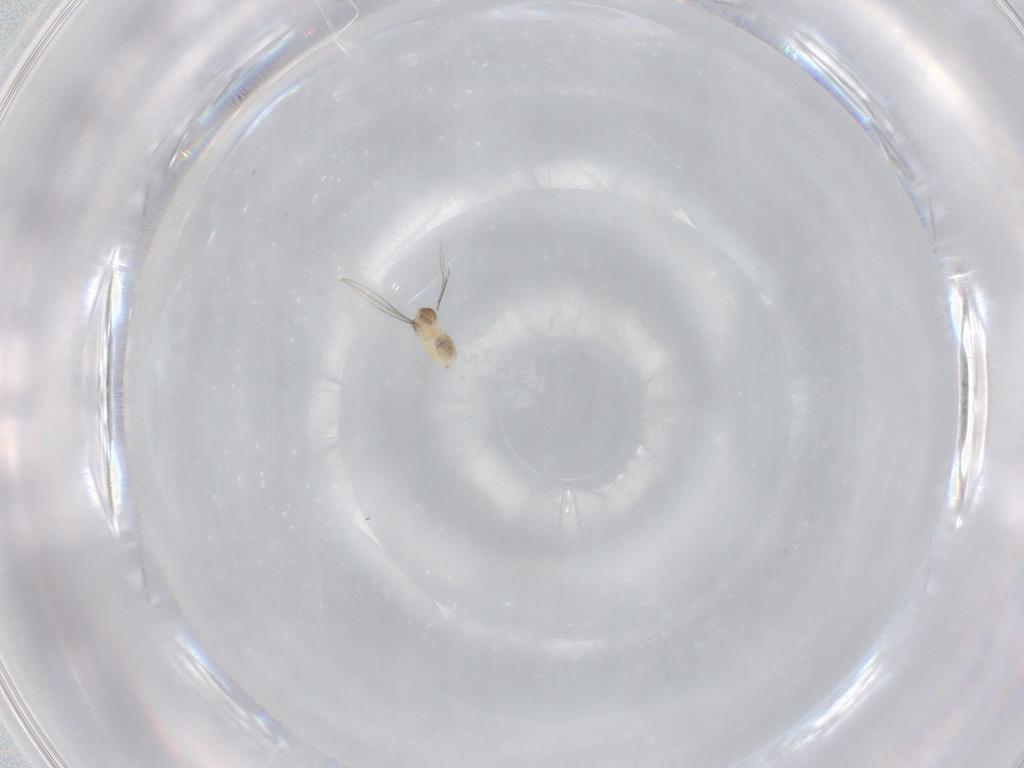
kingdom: Animalia
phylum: Arthropoda
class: Insecta
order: Diptera
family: Cecidomyiidae
